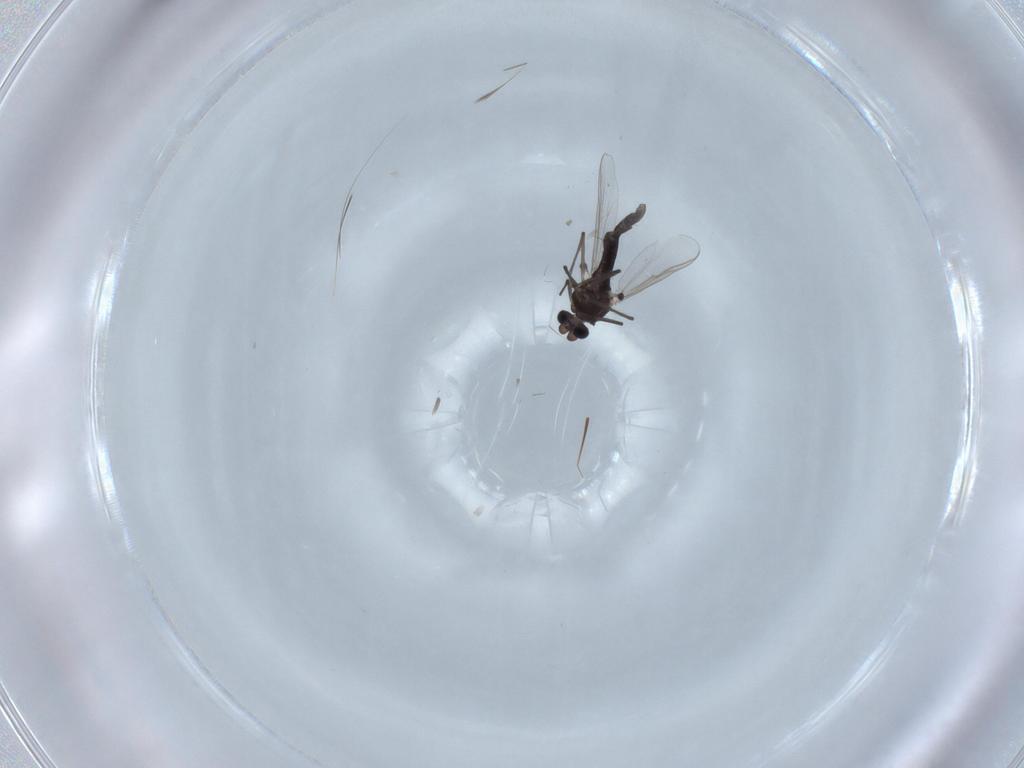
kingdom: Animalia
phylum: Arthropoda
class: Insecta
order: Diptera
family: Chironomidae
